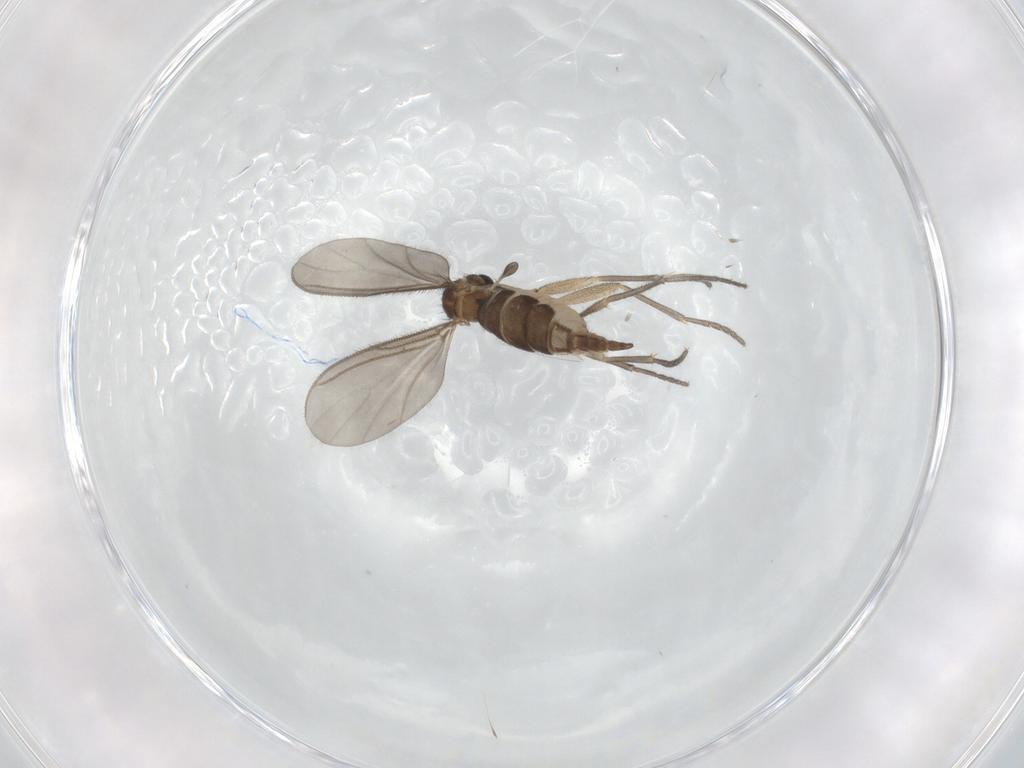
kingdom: Animalia
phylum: Arthropoda
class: Insecta
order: Diptera
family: Sciaridae
